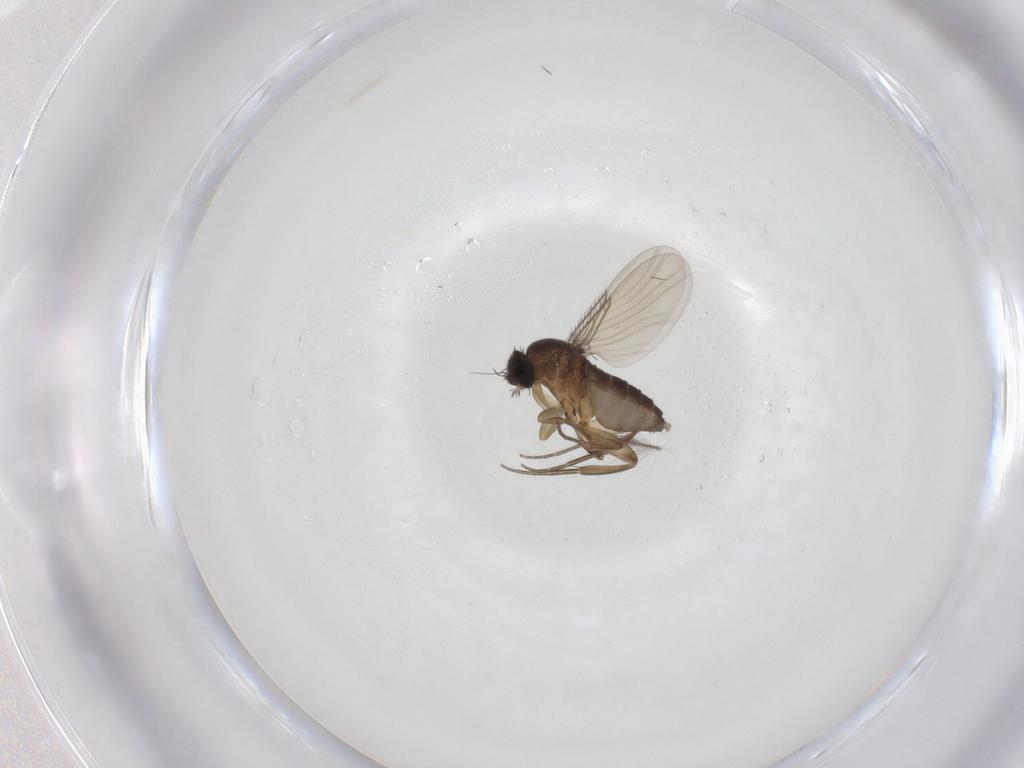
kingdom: Animalia
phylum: Arthropoda
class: Insecta
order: Diptera
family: Phoridae
